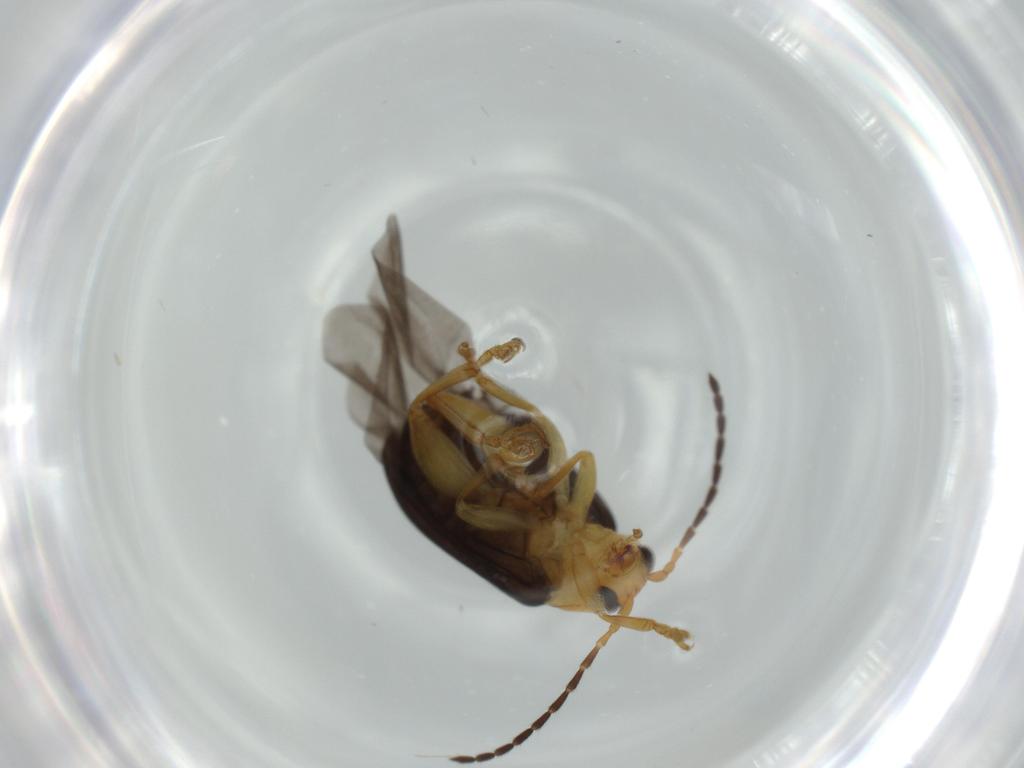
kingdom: Animalia
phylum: Arthropoda
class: Insecta
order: Coleoptera
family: Chrysomelidae
